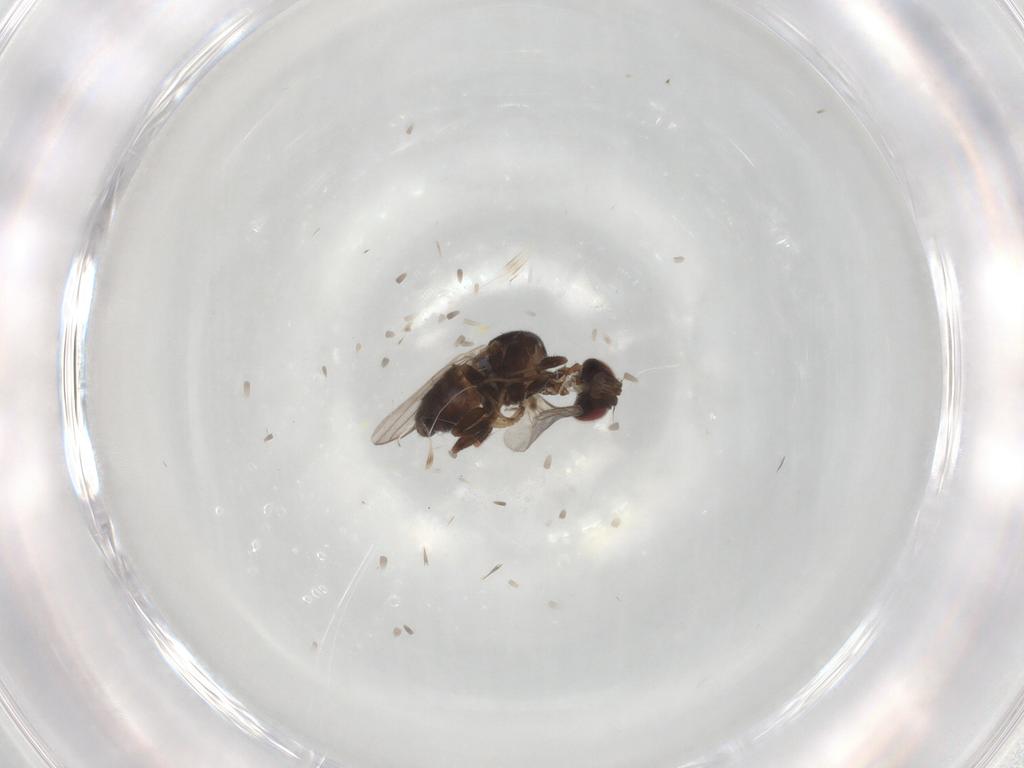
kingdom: Animalia
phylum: Arthropoda
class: Insecta
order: Diptera
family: Chloropidae
